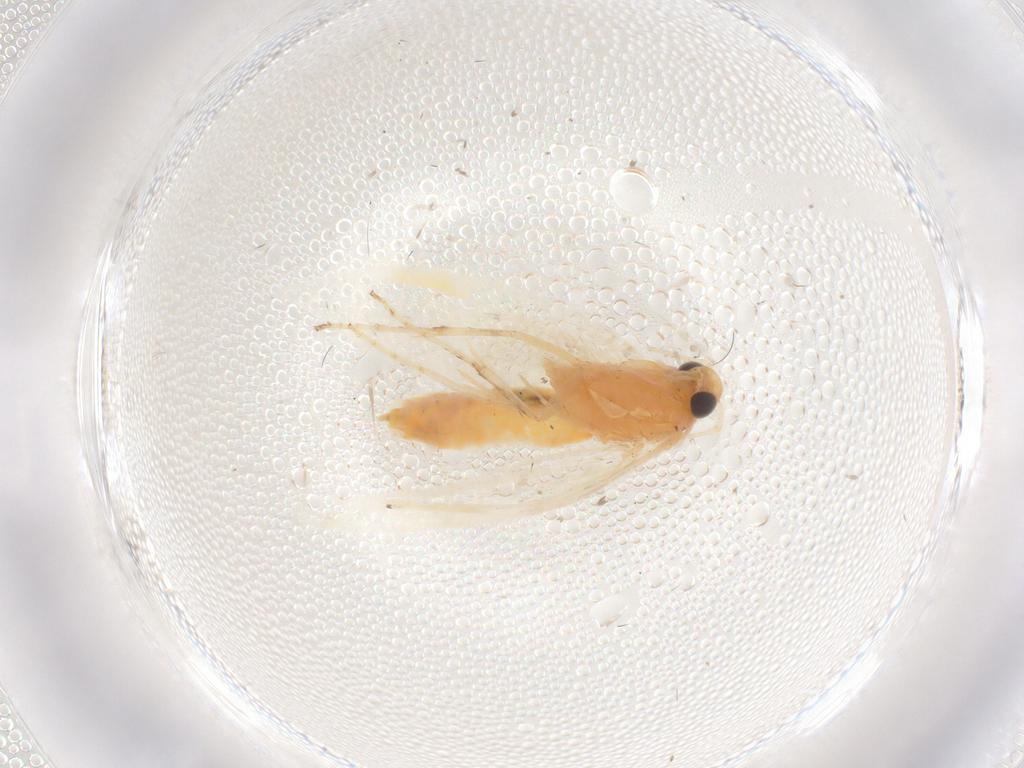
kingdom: Animalia
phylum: Arthropoda
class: Insecta
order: Lepidoptera
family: Argyresthiidae
